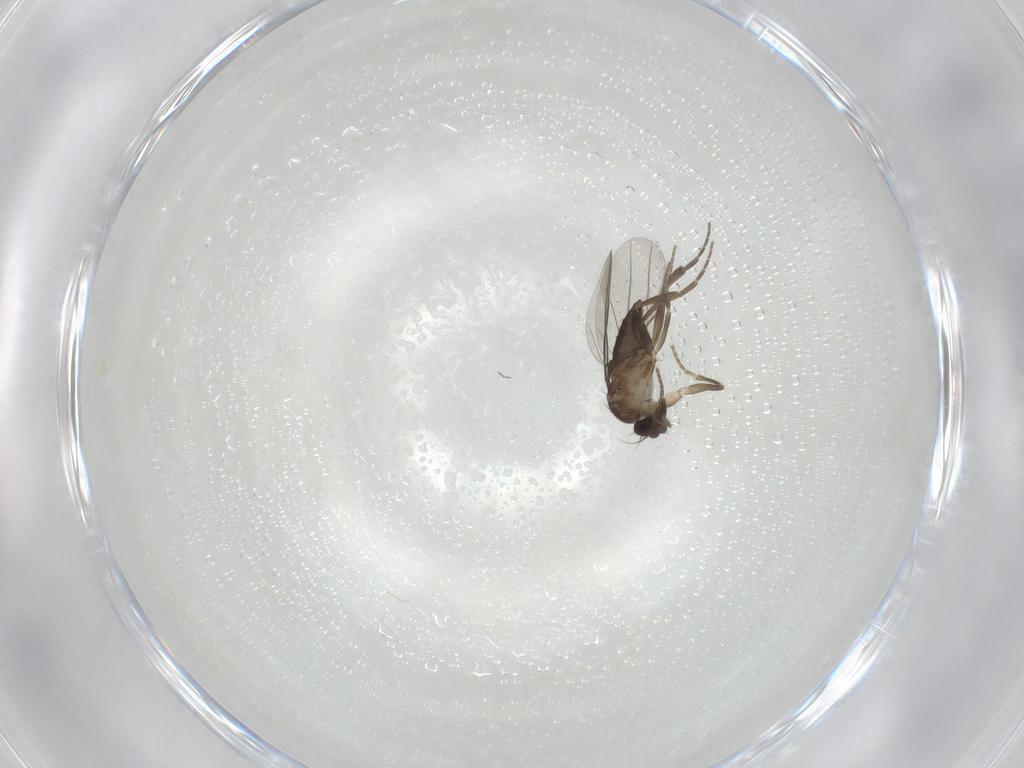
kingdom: Animalia
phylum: Arthropoda
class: Insecta
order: Diptera
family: Phoridae
